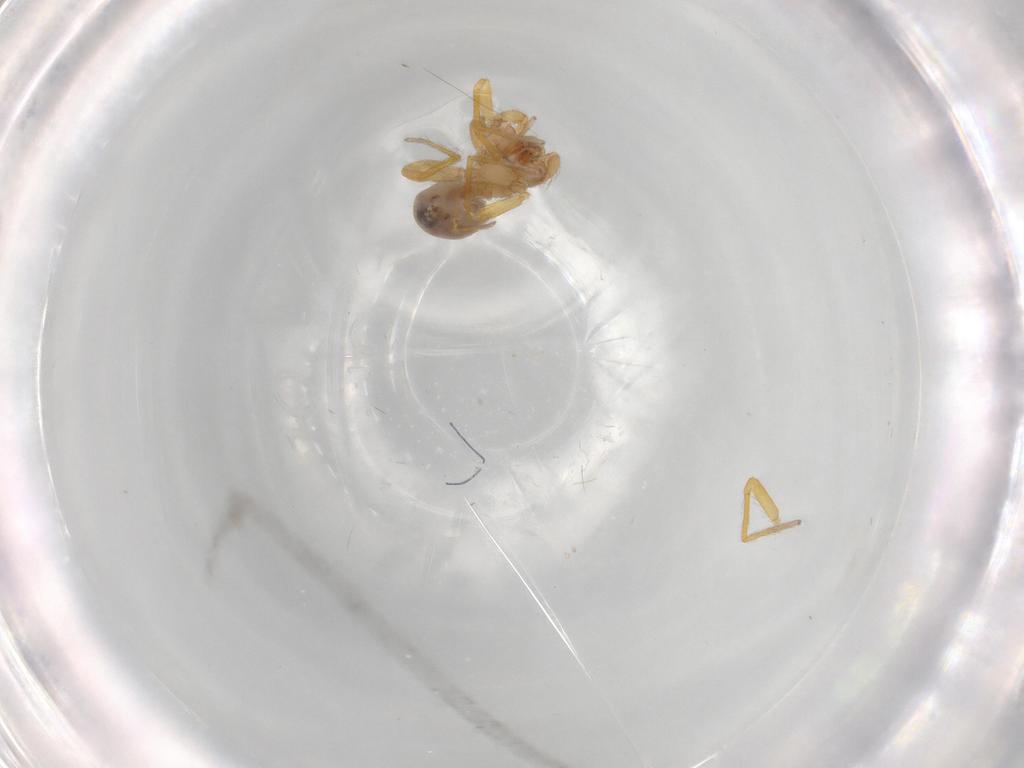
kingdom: Animalia
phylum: Arthropoda
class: Arachnida
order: Araneae
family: Oonopidae
